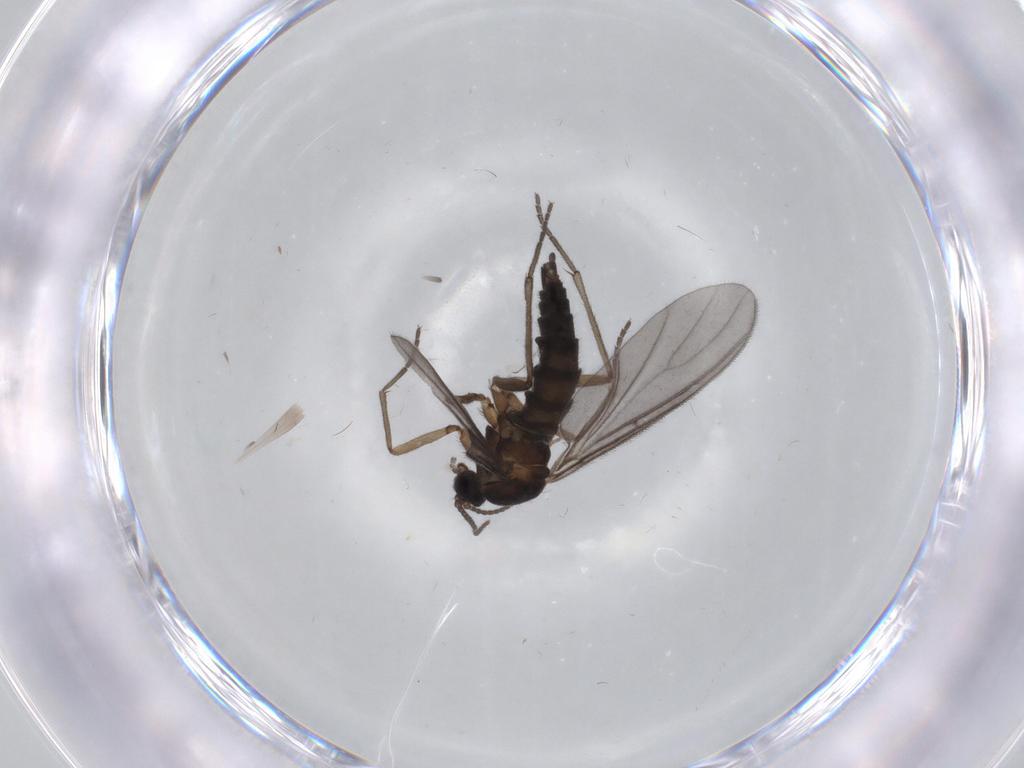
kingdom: Animalia
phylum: Arthropoda
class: Insecta
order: Diptera
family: Sciaridae
